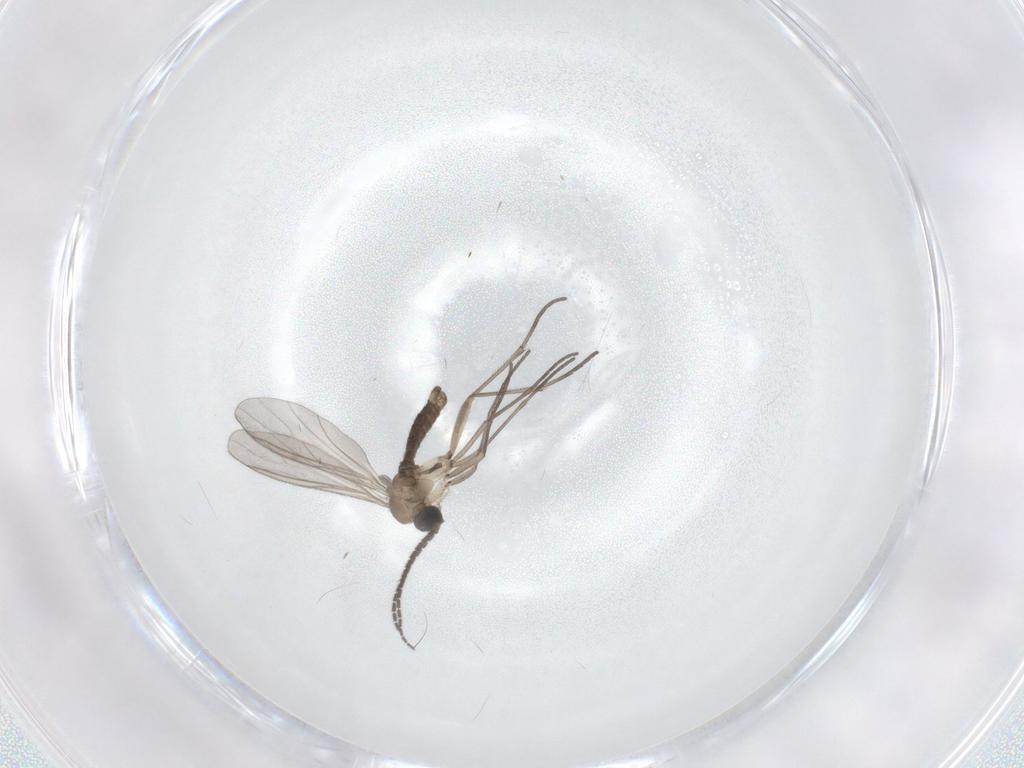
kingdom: Animalia
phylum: Arthropoda
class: Insecta
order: Diptera
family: Sciaridae
